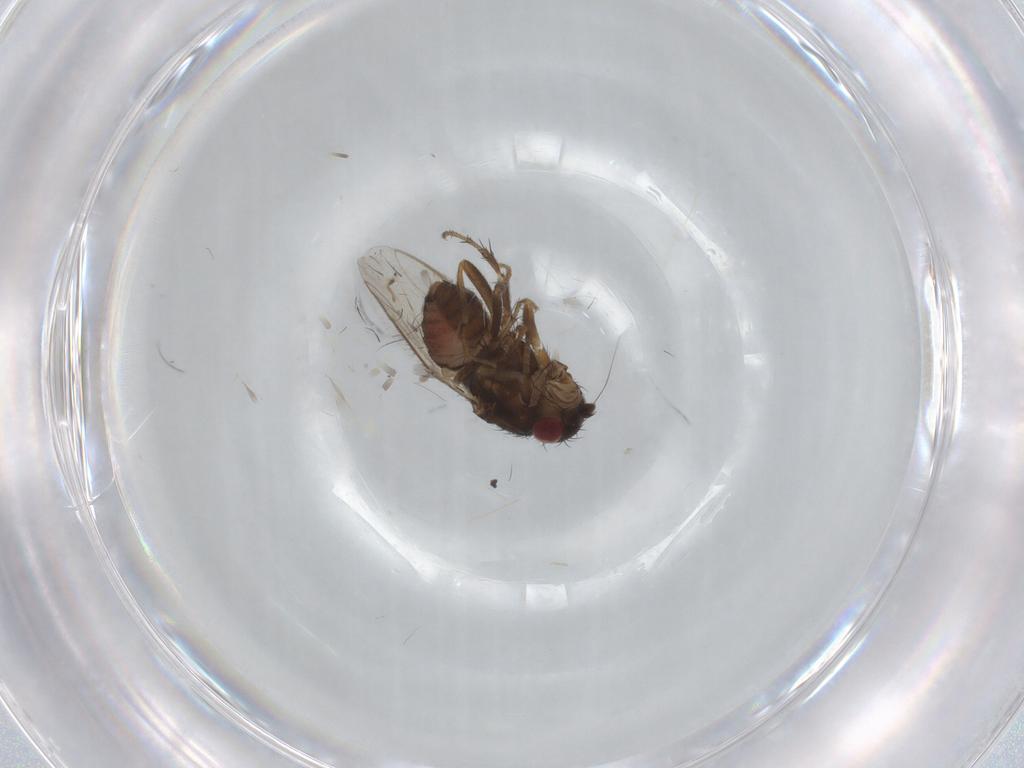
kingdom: Animalia
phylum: Arthropoda
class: Insecta
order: Diptera
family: Sphaeroceridae
